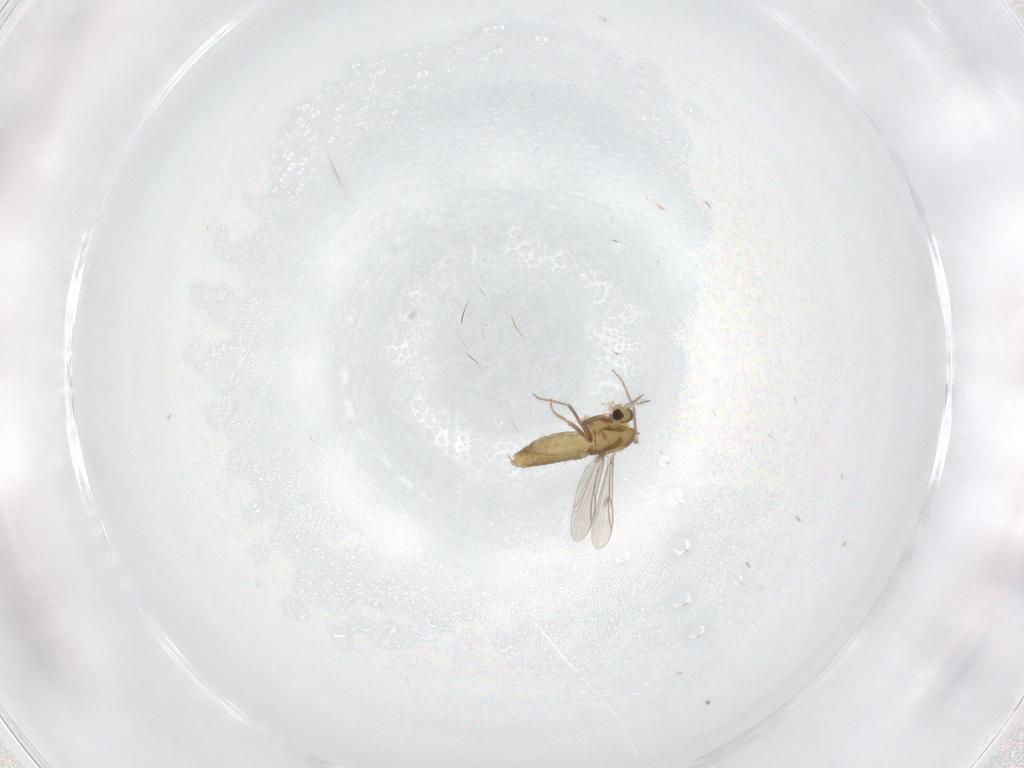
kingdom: Animalia
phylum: Arthropoda
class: Insecta
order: Diptera
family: Chironomidae
